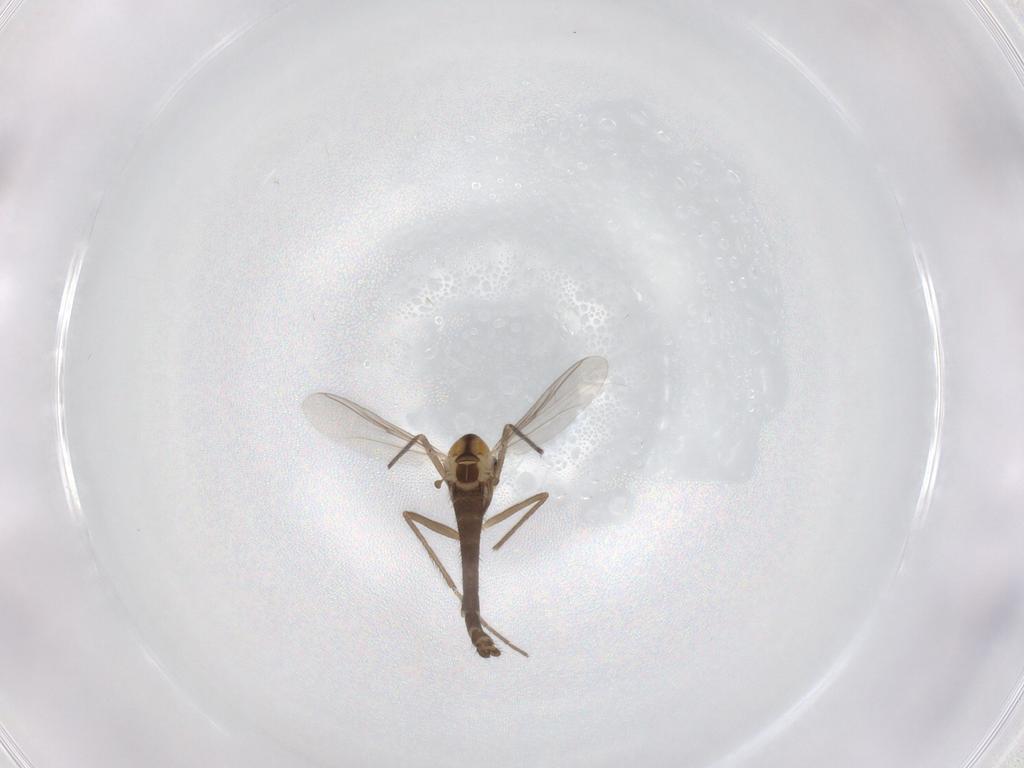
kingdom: Animalia
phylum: Arthropoda
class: Insecta
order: Diptera
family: Chironomidae
